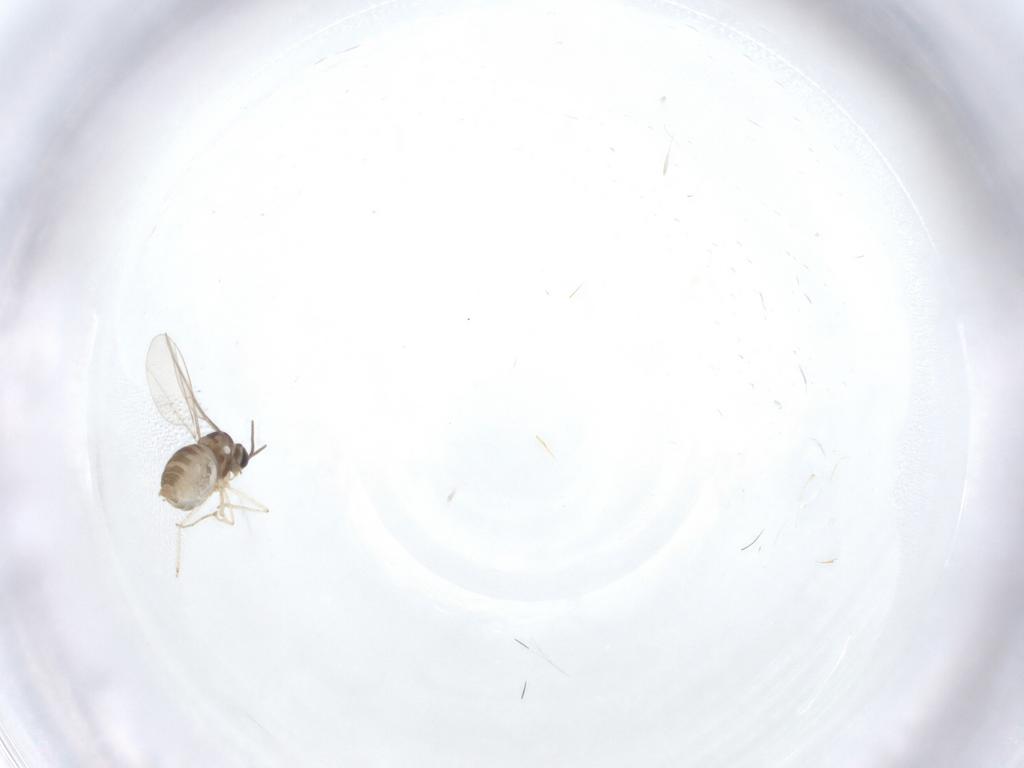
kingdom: Animalia
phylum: Arthropoda
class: Insecta
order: Diptera
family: Cecidomyiidae
